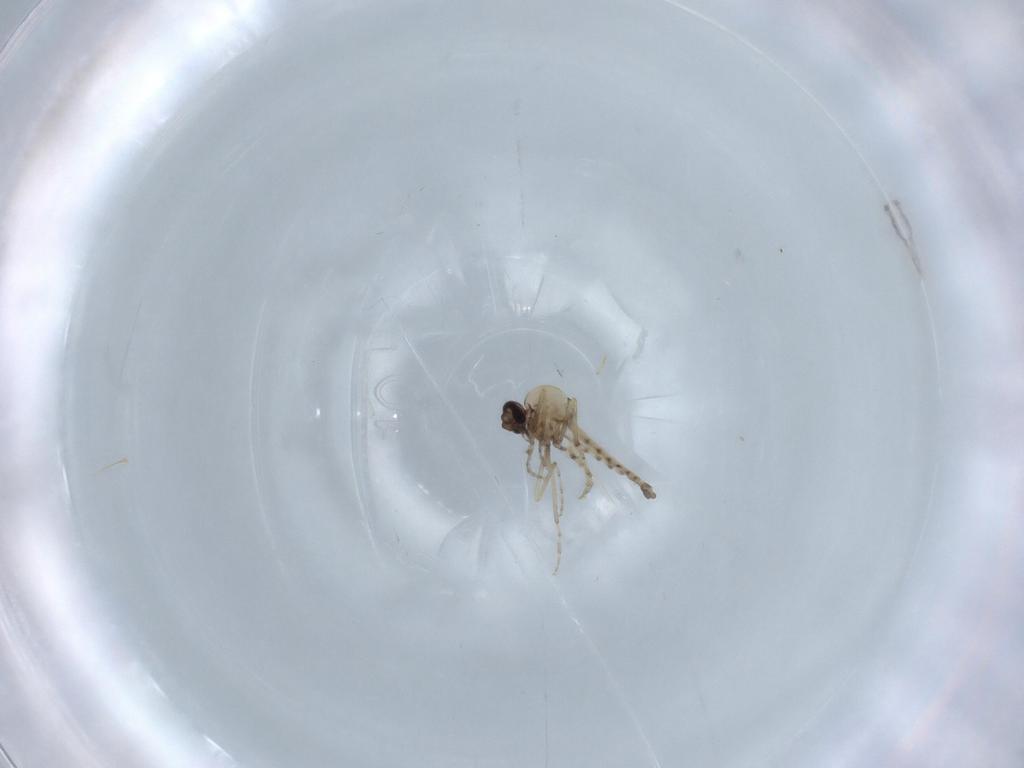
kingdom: Animalia
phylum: Arthropoda
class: Insecta
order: Diptera
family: Ceratopogonidae
